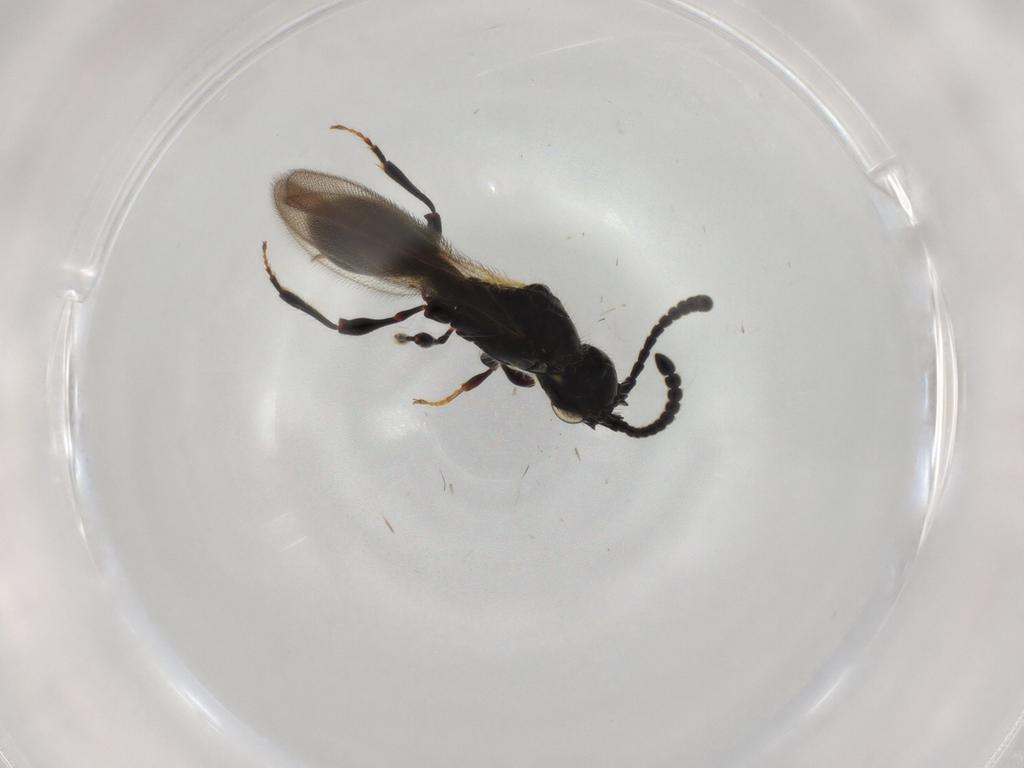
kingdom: Animalia
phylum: Arthropoda
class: Insecta
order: Hymenoptera
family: Diapriidae
